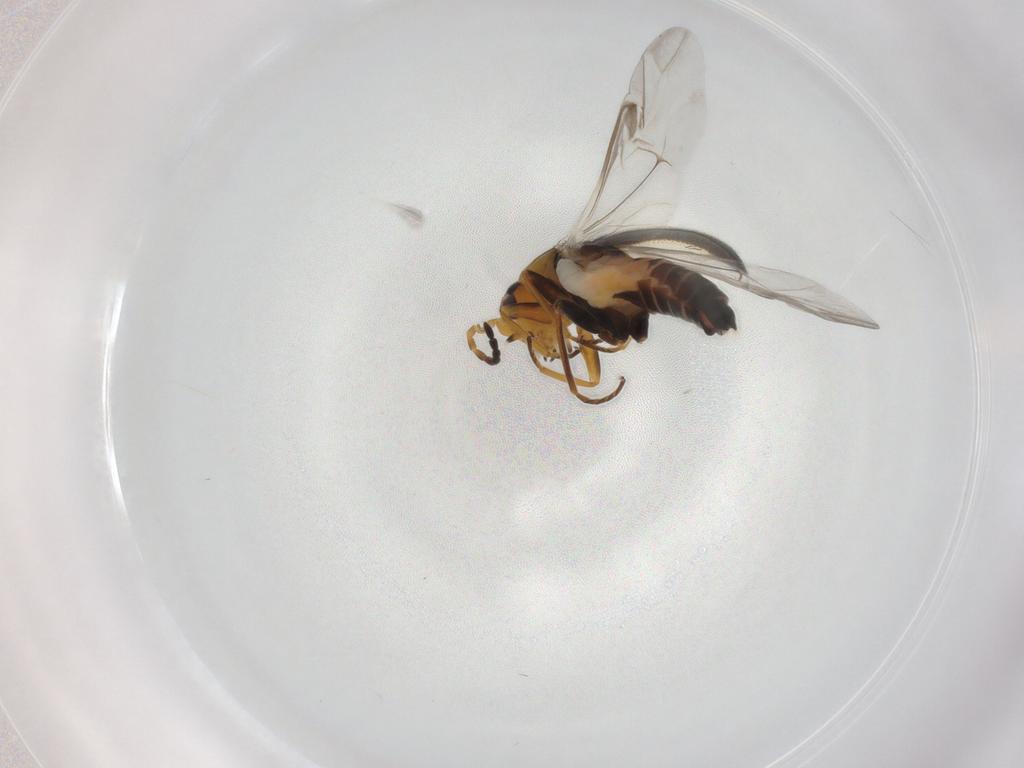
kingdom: Animalia
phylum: Arthropoda
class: Insecta
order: Coleoptera
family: Melyridae
